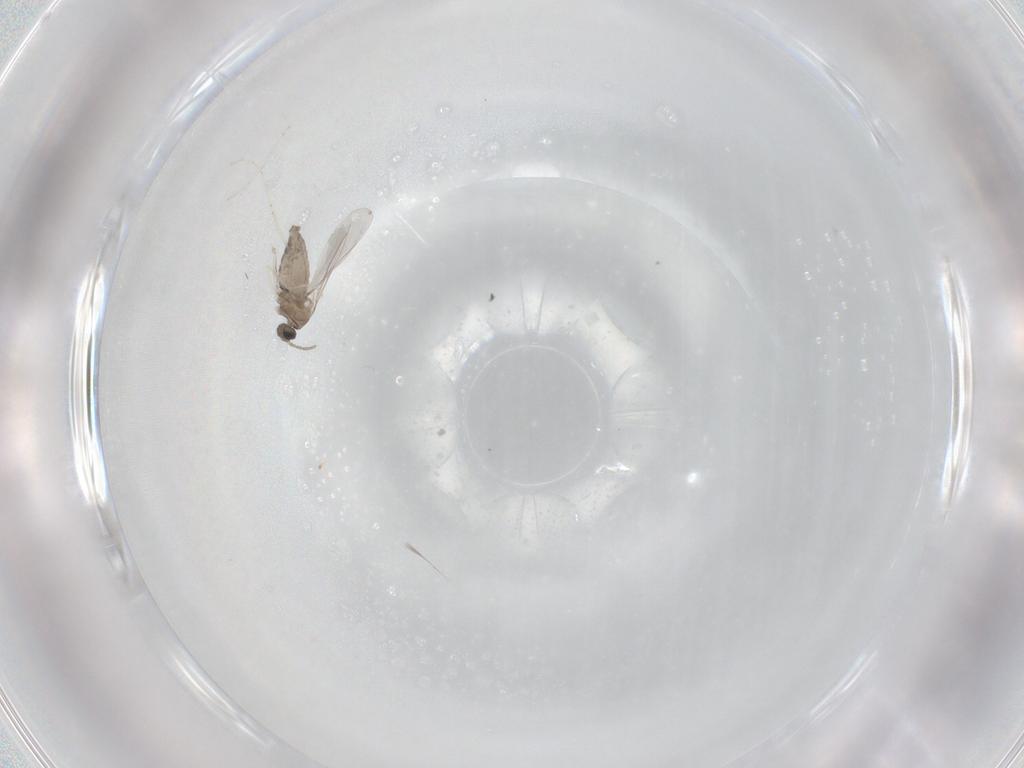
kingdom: Animalia
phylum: Arthropoda
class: Insecta
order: Diptera
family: Cecidomyiidae
